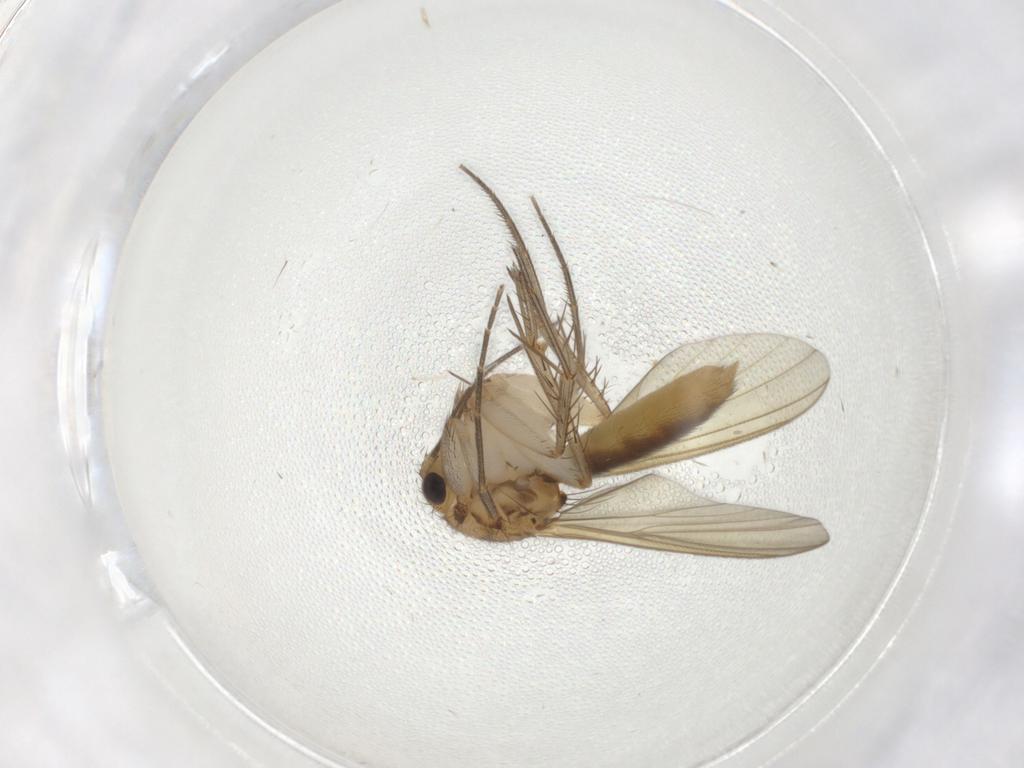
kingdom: Animalia
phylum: Arthropoda
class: Insecta
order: Diptera
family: Mycetophilidae
